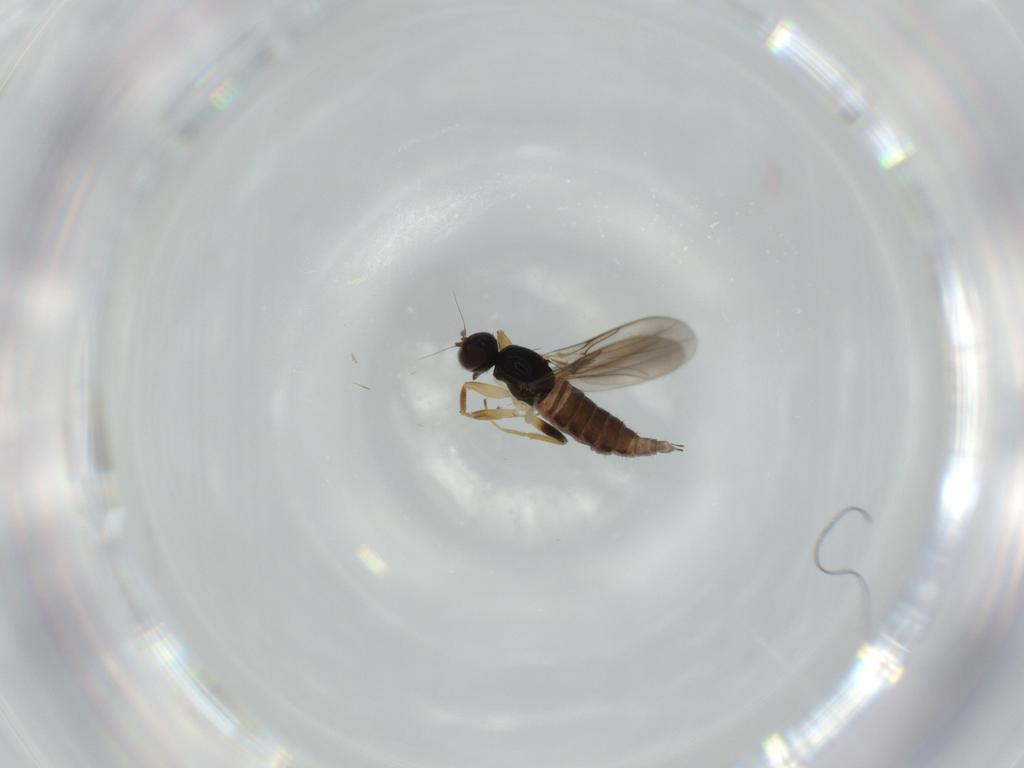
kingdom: Animalia
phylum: Arthropoda
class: Insecta
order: Diptera
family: Hybotidae
